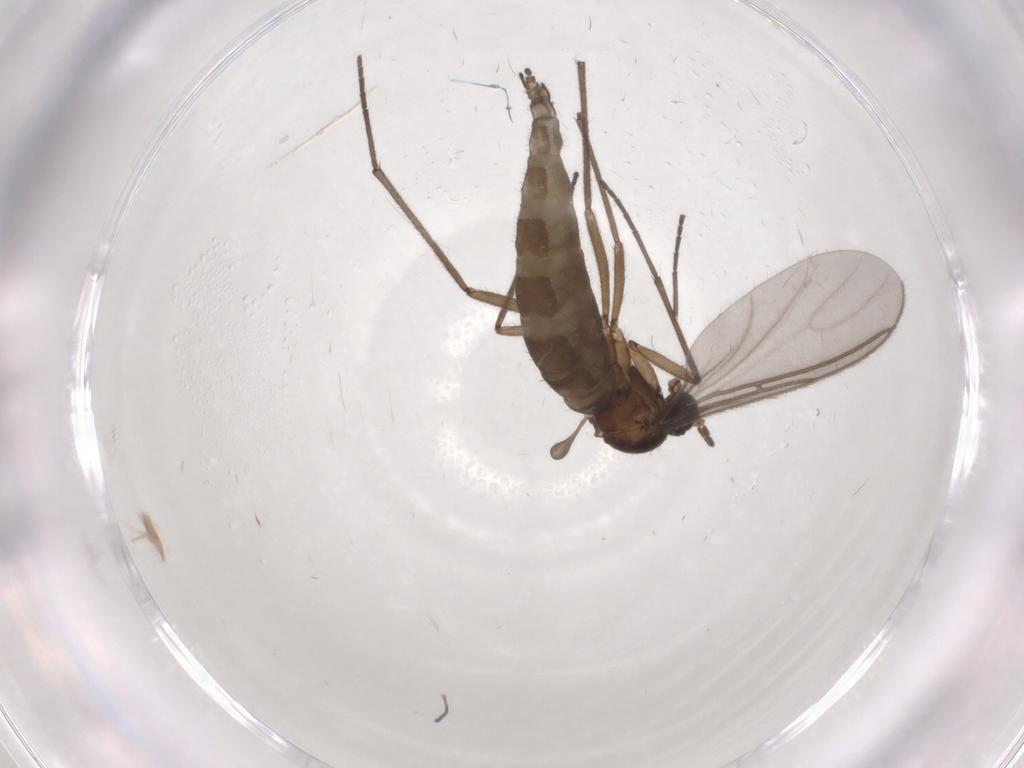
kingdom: Animalia
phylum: Arthropoda
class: Insecta
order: Diptera
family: Sciaridae
